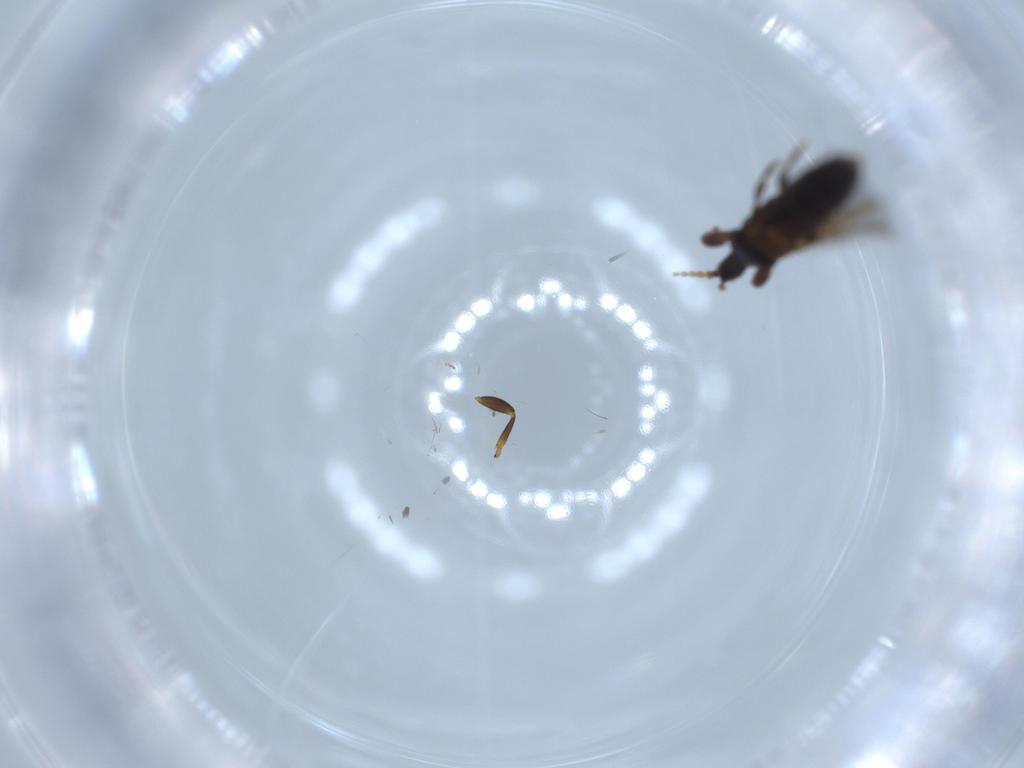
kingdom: Animalia
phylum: Arthropoda
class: Insecta
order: Thysanoptera
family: Phlaeothripidae
